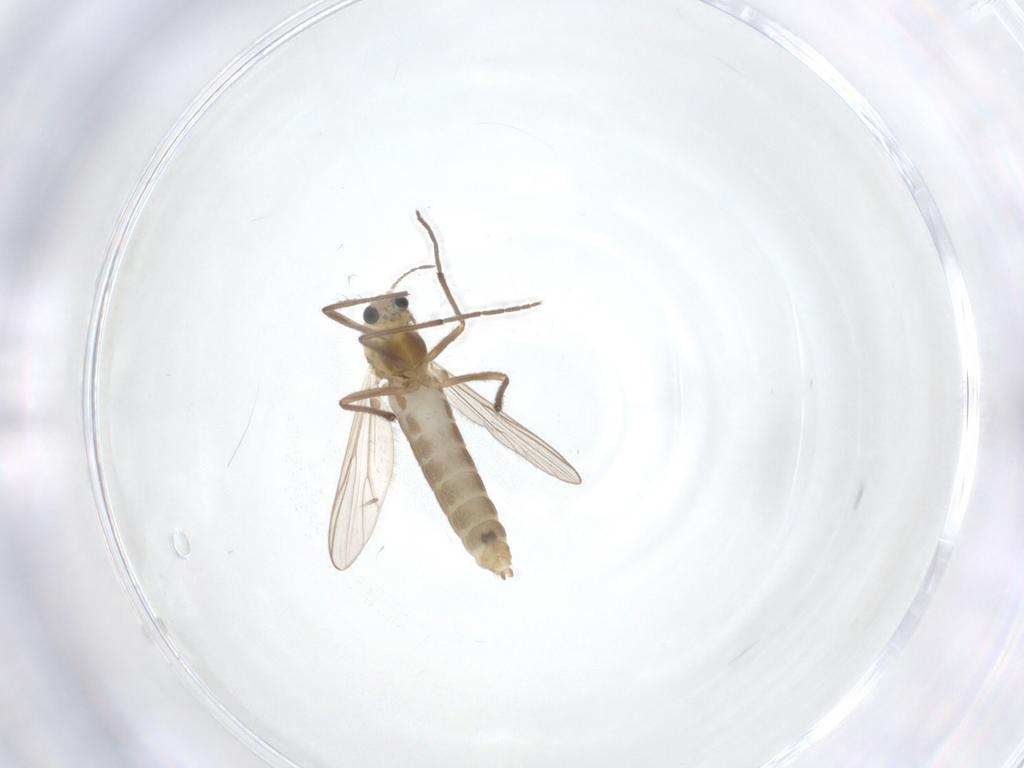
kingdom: Animalia
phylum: Arthropoda
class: Insecta
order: Diptera
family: Chironomidae
